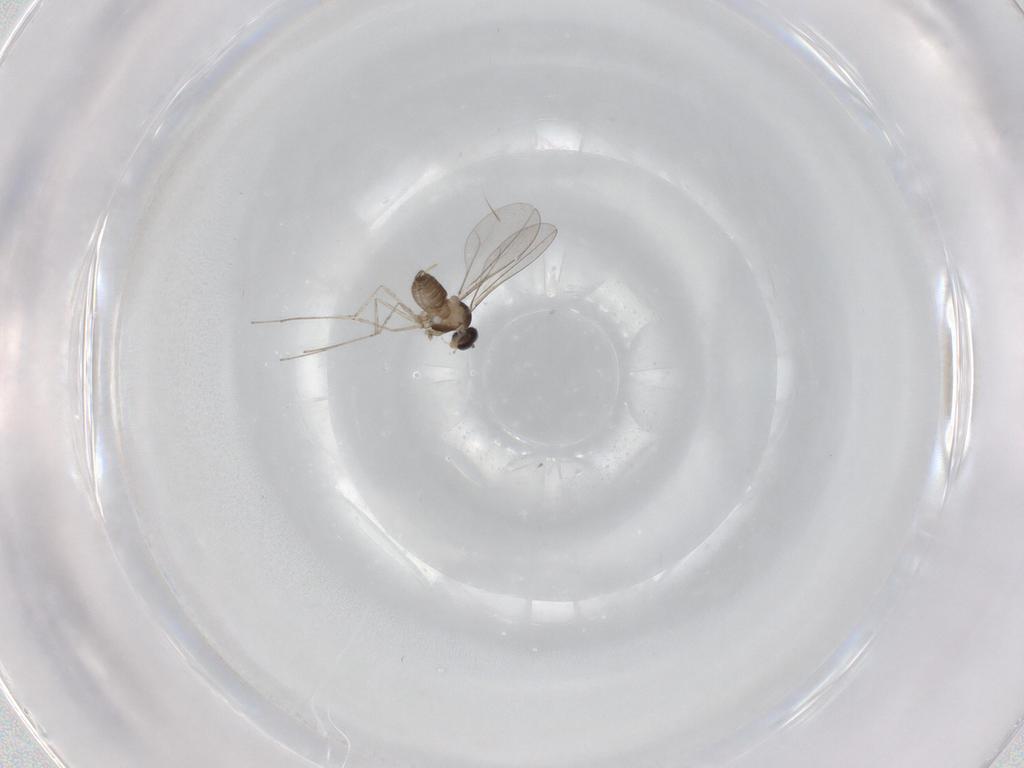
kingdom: Animalia
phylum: Arthropoda
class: Insecta
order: Diptera
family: Cecidomyiidae
